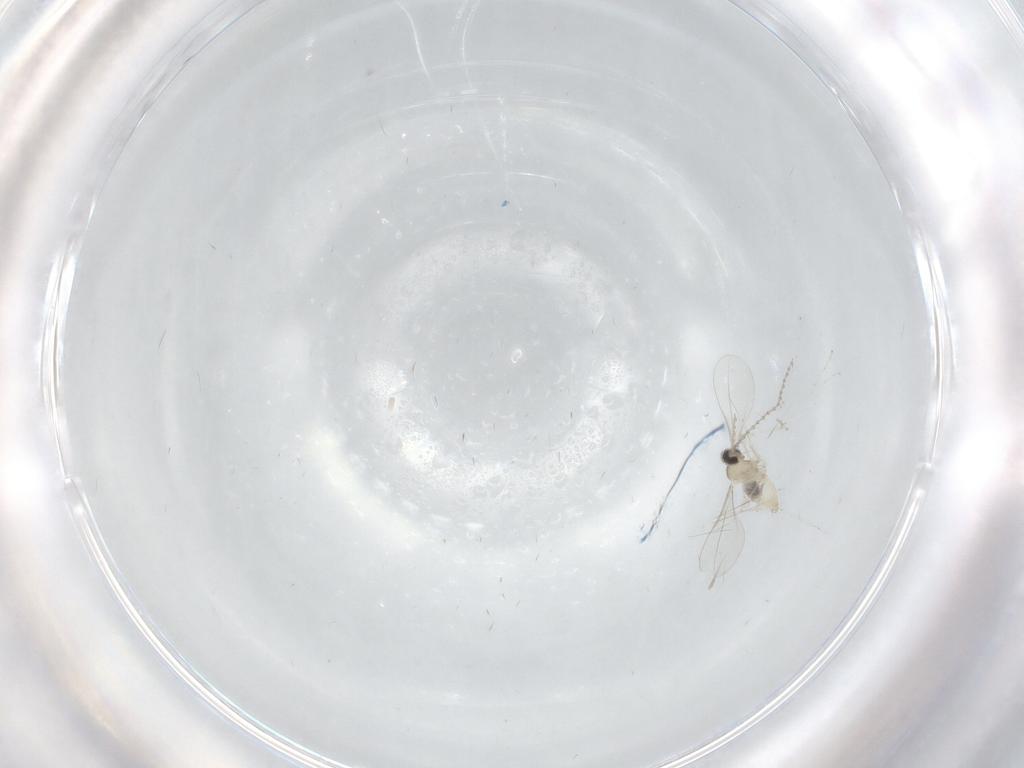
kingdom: Animalia
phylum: Arthropoda
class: Insecta
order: Diptera
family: Cecidomyiidae
